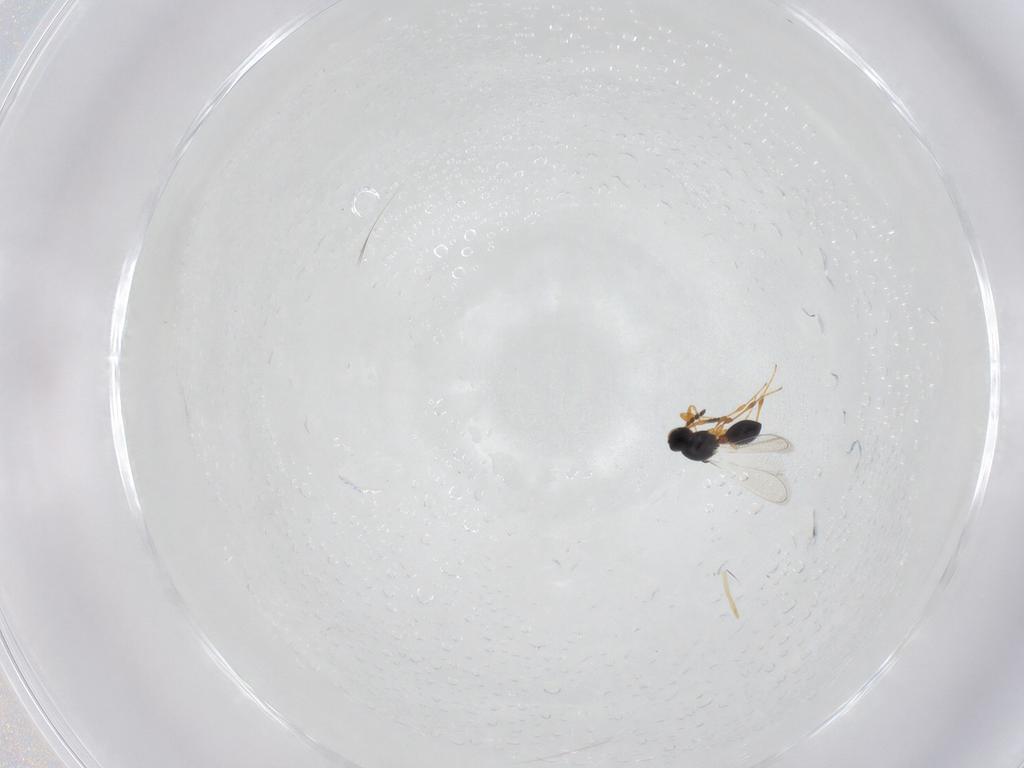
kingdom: Animalia
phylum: Arthropoda
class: Insecta
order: Hymenoptera
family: Platygastridae
